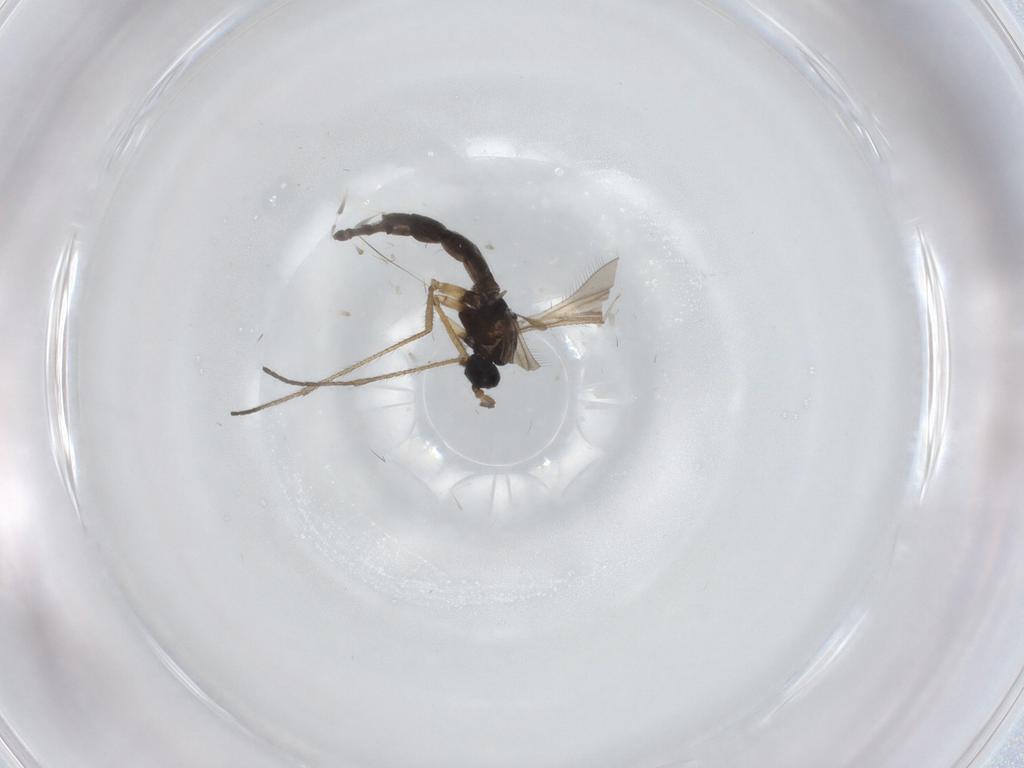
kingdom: Animalia
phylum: Arthropoda
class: Insecta
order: Diptera
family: Sciaridae
